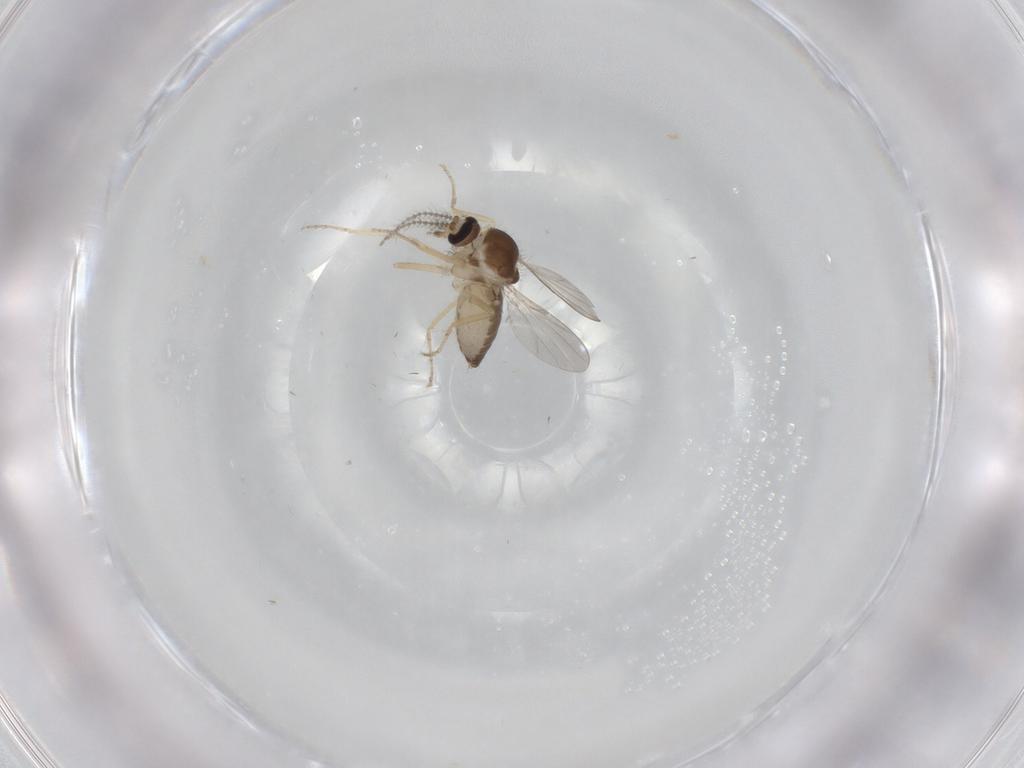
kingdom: Animalia
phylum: Arthropoda
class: Insecta
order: Diptera
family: Ceratopogonidae
